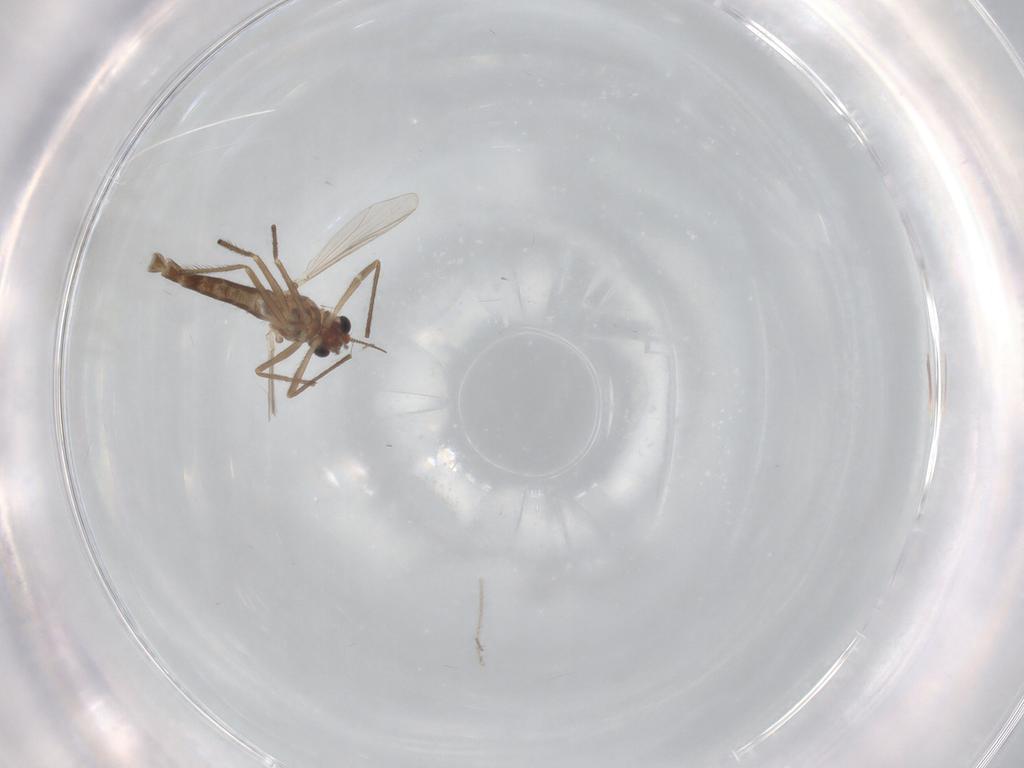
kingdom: Animalia
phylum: Arthropoda
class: Insecta
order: Diptera
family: Chironomidae
